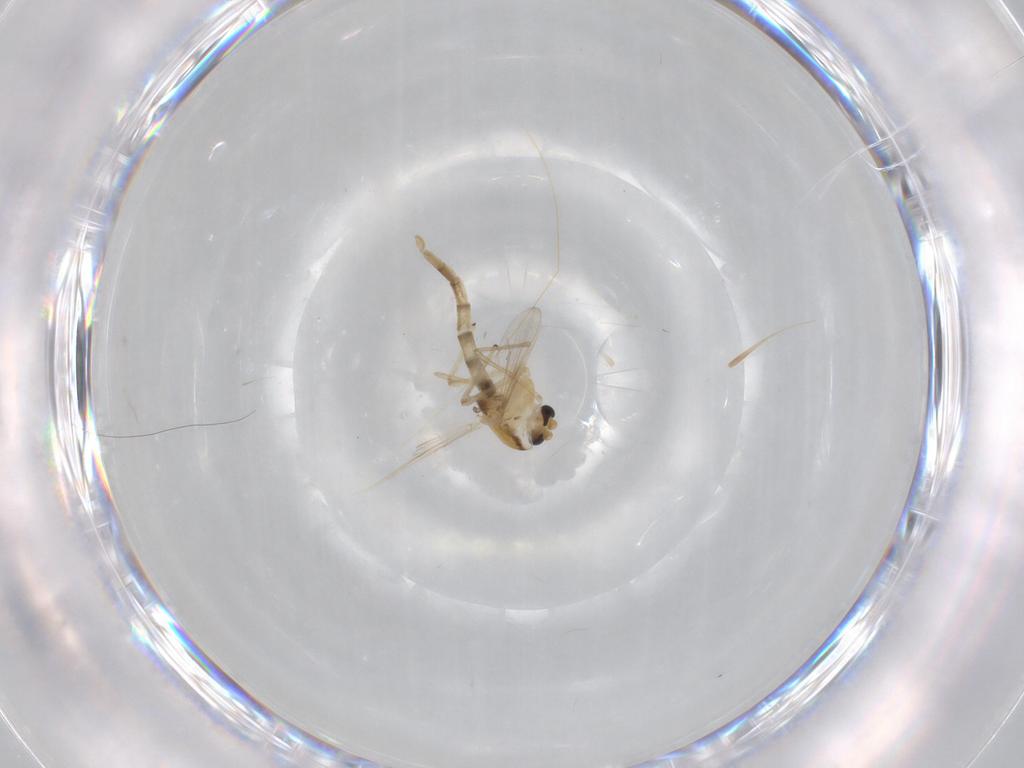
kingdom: Animalia
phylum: Arthropoda
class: Insecta
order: Diptera
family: Chironomidae
